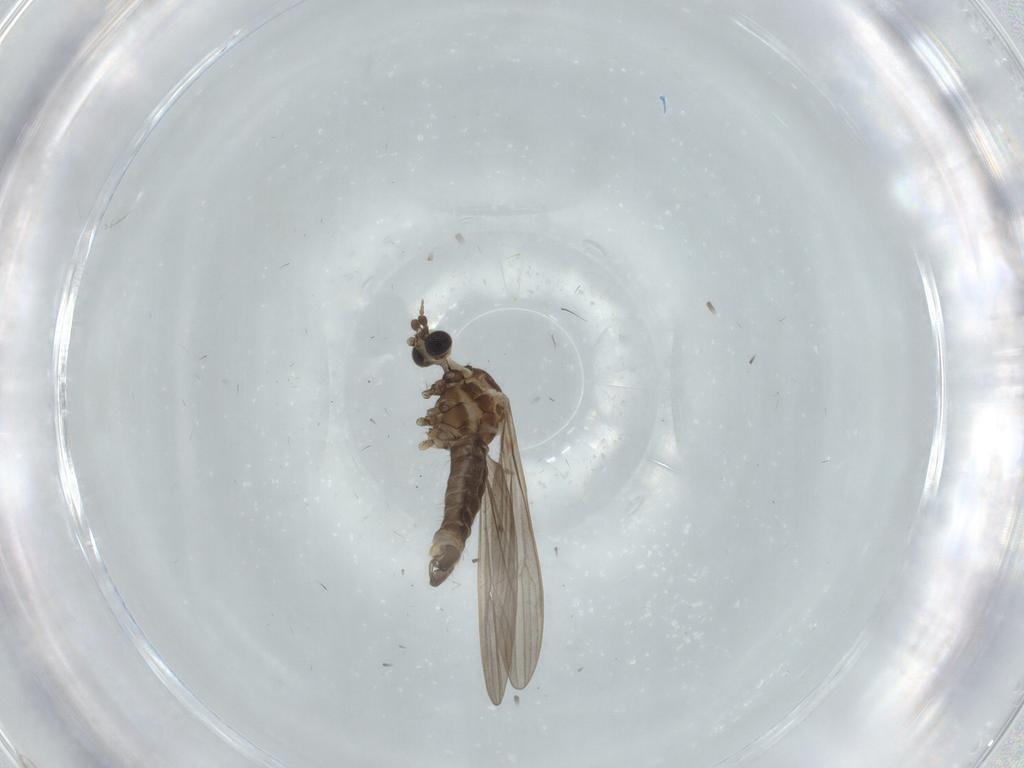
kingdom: Animalia
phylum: Arthropoda
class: Insecta
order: Diptera
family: Limoniidae
